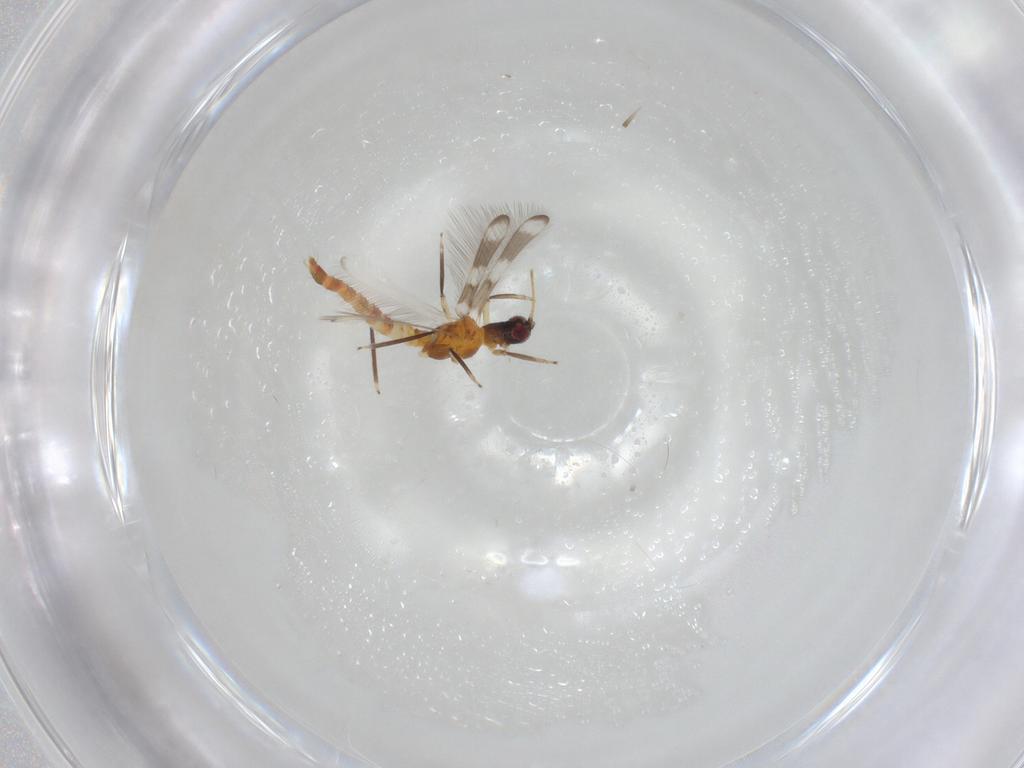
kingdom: Animalia
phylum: Arthropoda
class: Insecta
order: Thysanoptera
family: Aeolothripidae
